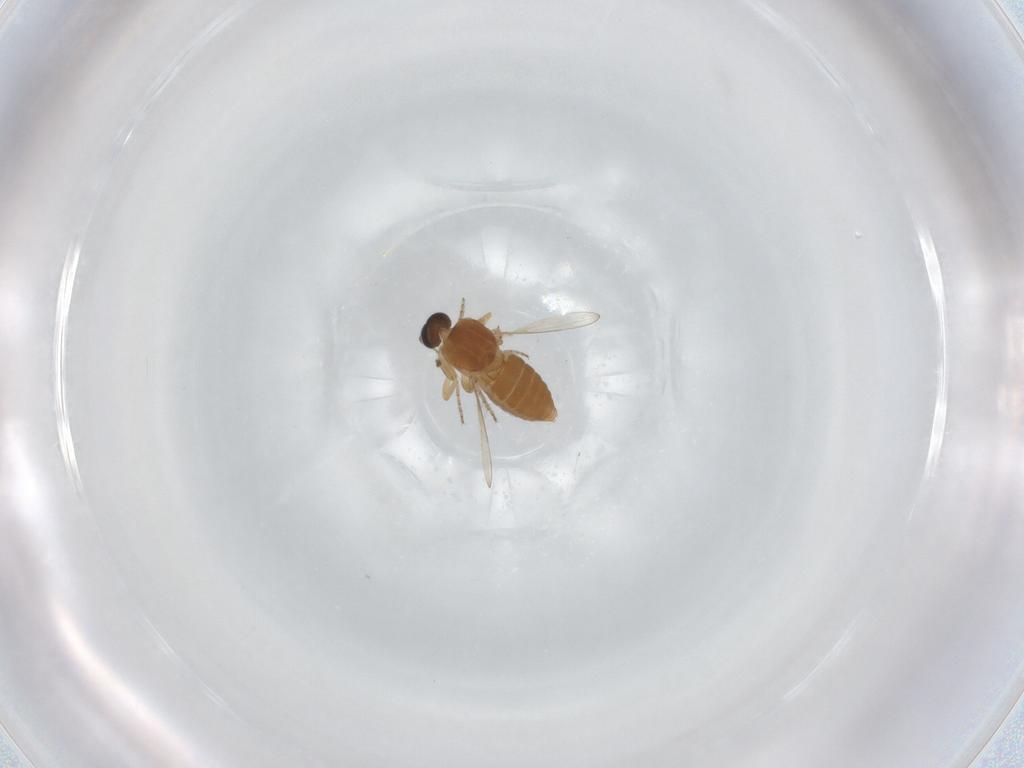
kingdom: Animalia
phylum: Arthropoda
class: Insecta
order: Diptera
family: Ceratopogonidae
